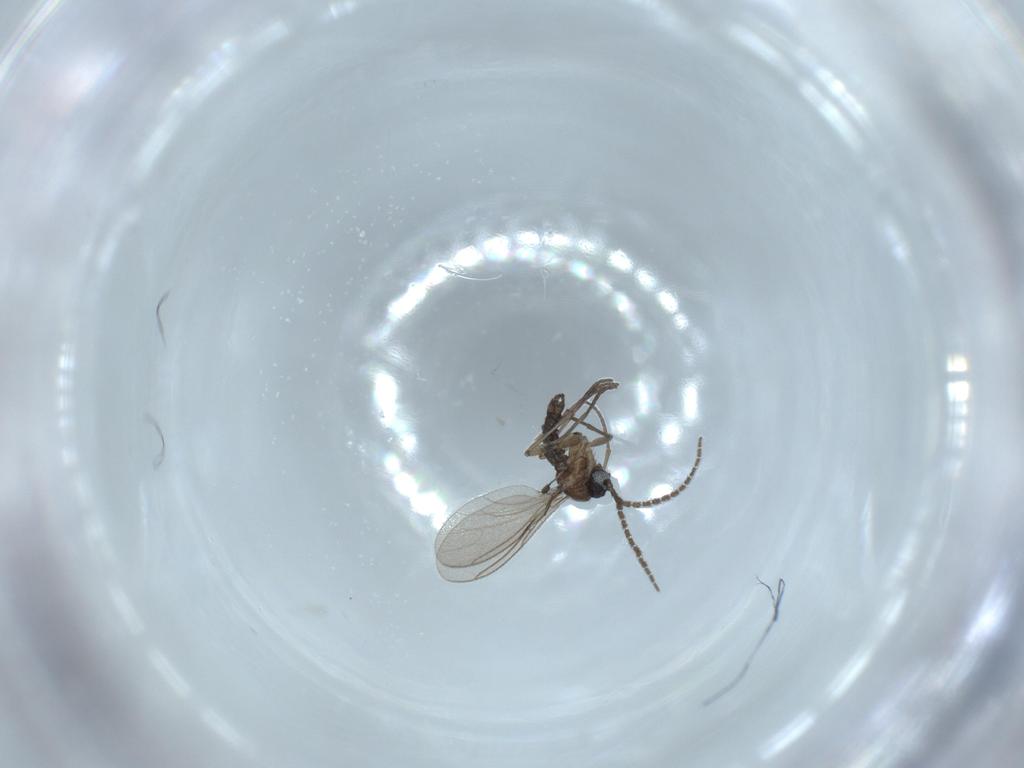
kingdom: Animalia
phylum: Arthropoda
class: Insecta
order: Diptera
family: Sciaridae
